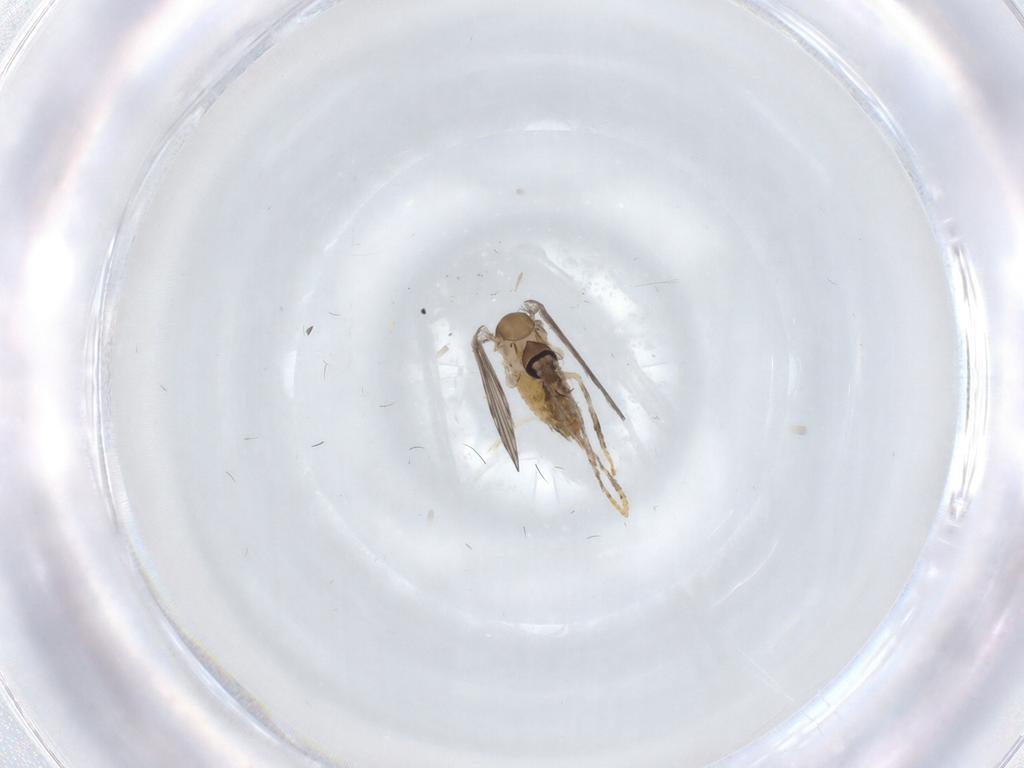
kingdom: Animalia
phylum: Arthropoda
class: Insecta
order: Diptera
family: Psychodidae
